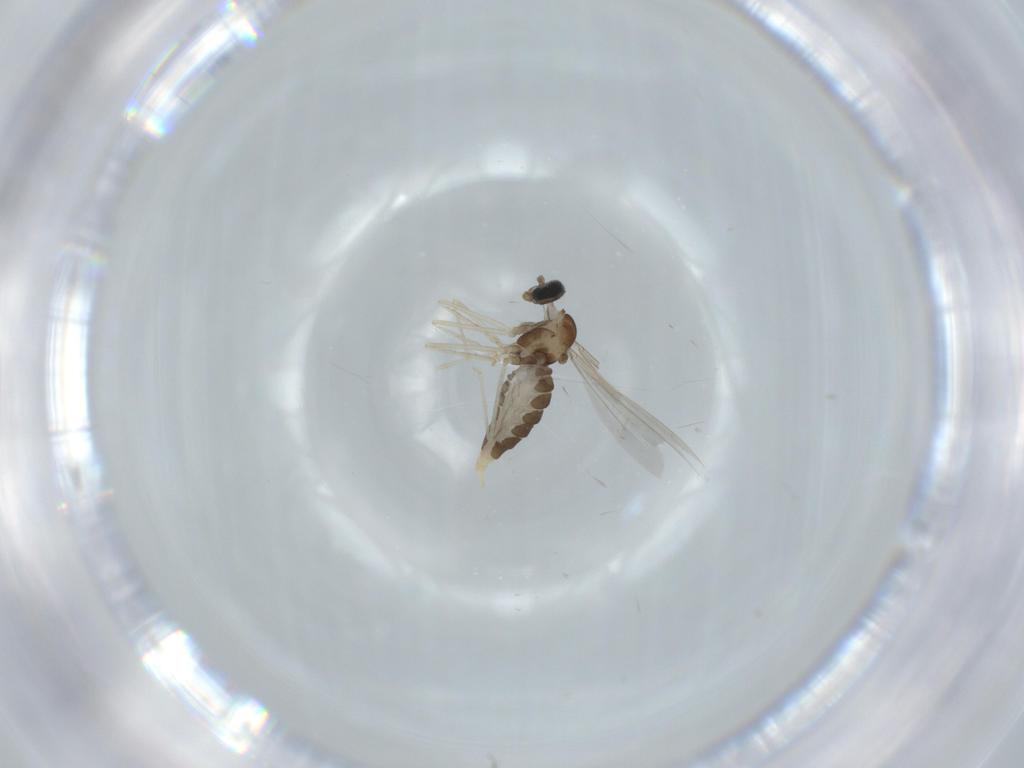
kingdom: Animalia
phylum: Arthropoda
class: Insecta
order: Diptera
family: Cecidomyiidae
